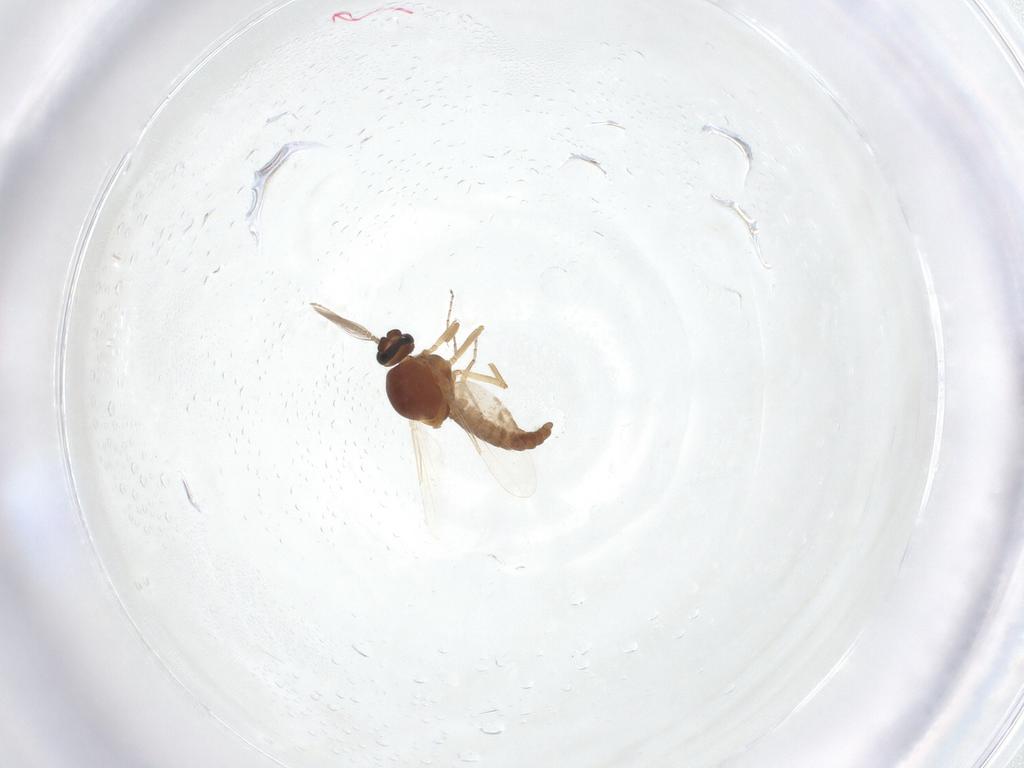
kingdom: Animalia
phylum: Arthropoda
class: Insecta
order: Diptera
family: Ceratopogonidae
